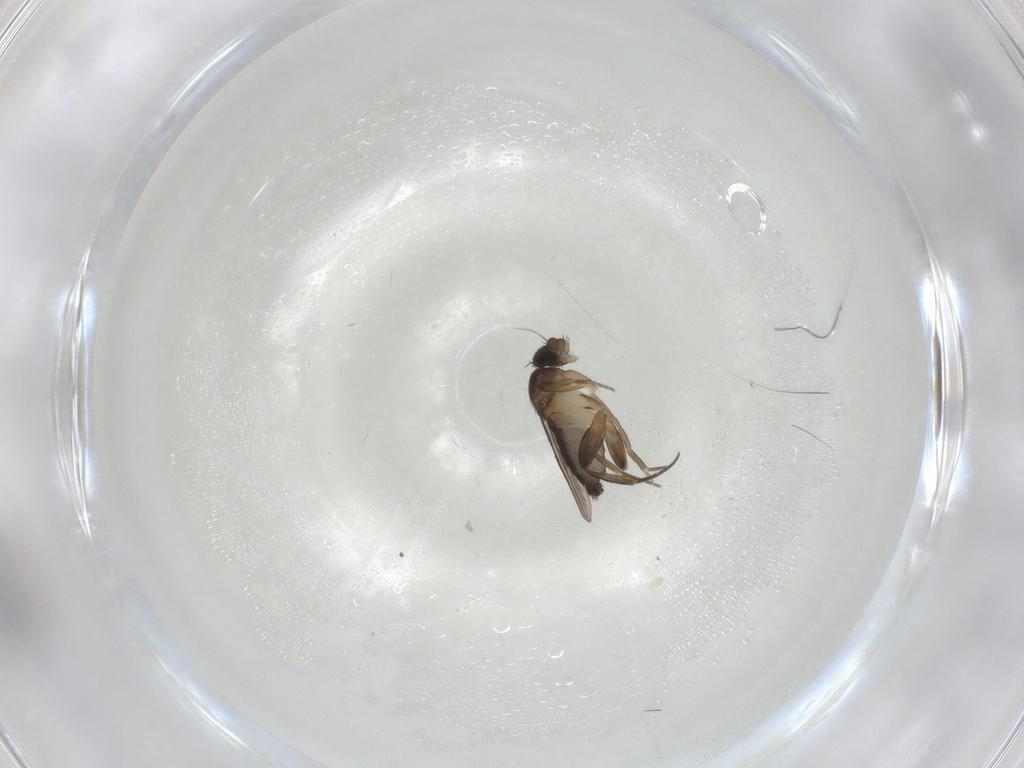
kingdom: Animalia
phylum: Arthropoda
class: Insecta
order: Diptera
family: Phoridae
